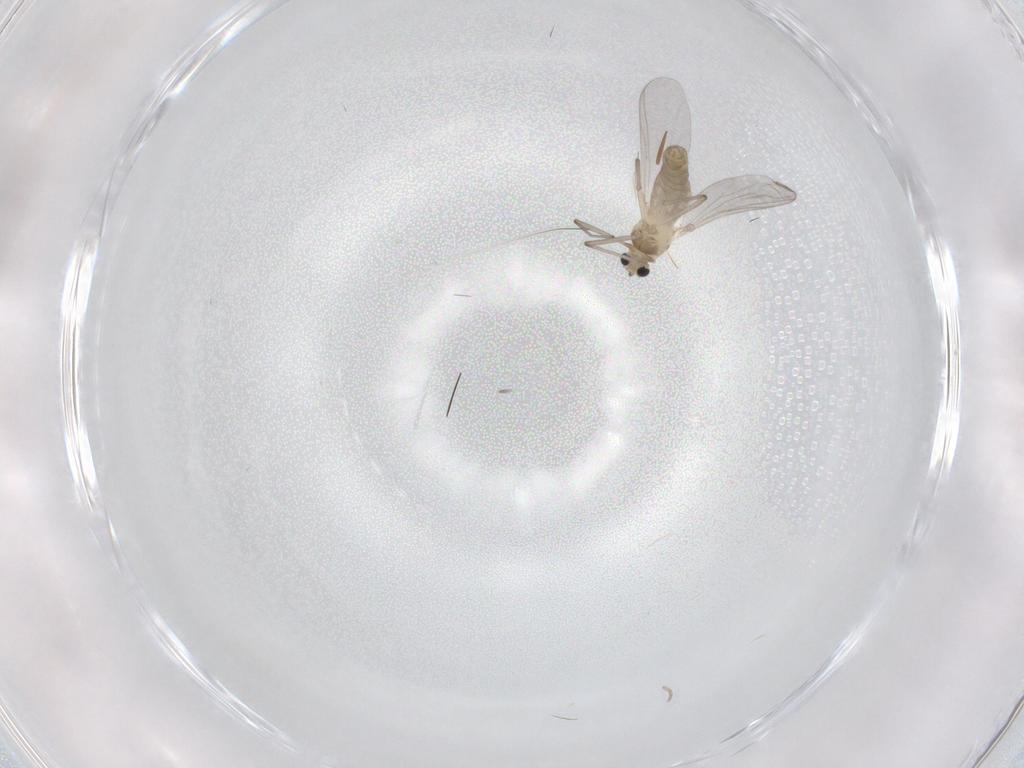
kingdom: Animalia
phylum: Arthropoda
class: Insecta
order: Diptera
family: Chironomidae
